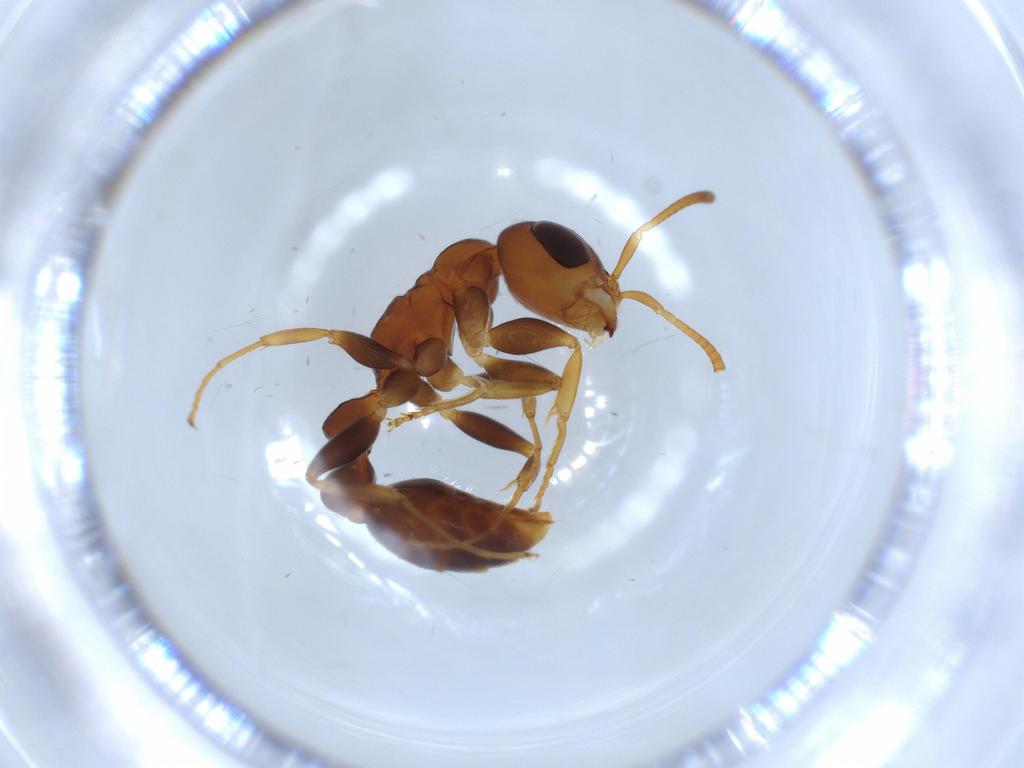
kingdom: Animalia
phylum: Arthropoda
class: Insecta
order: Hymenoptera
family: Formicidae
